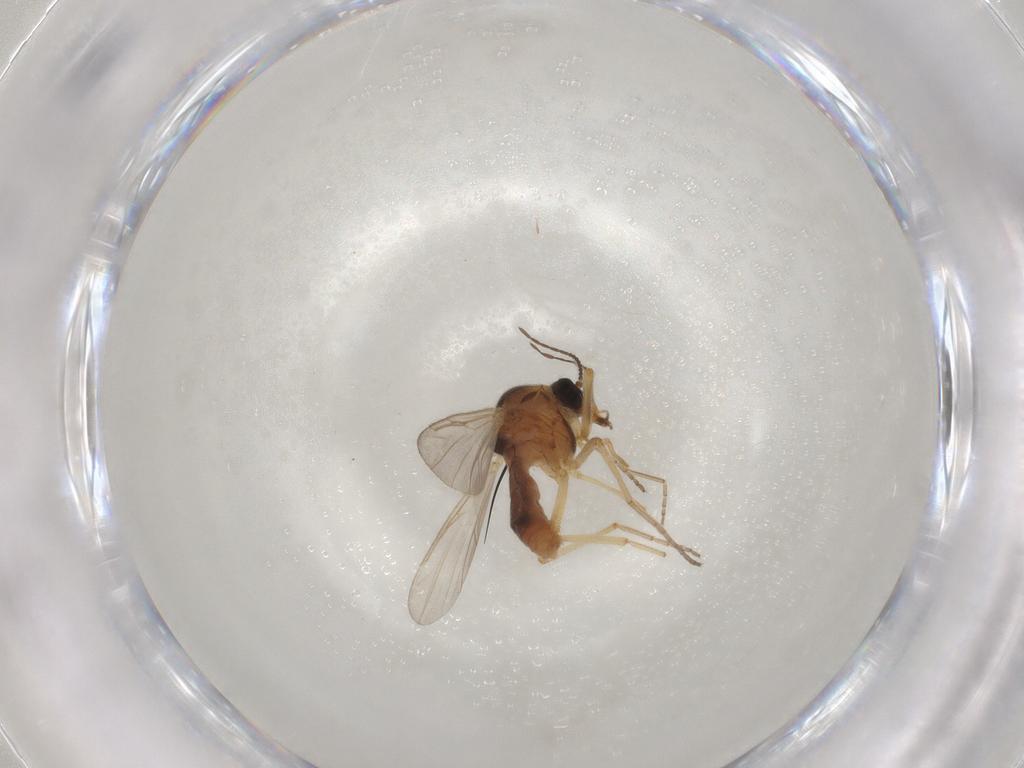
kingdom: Animalia
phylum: Arthropoda
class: Insecta
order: Diptera
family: Chironomidae
